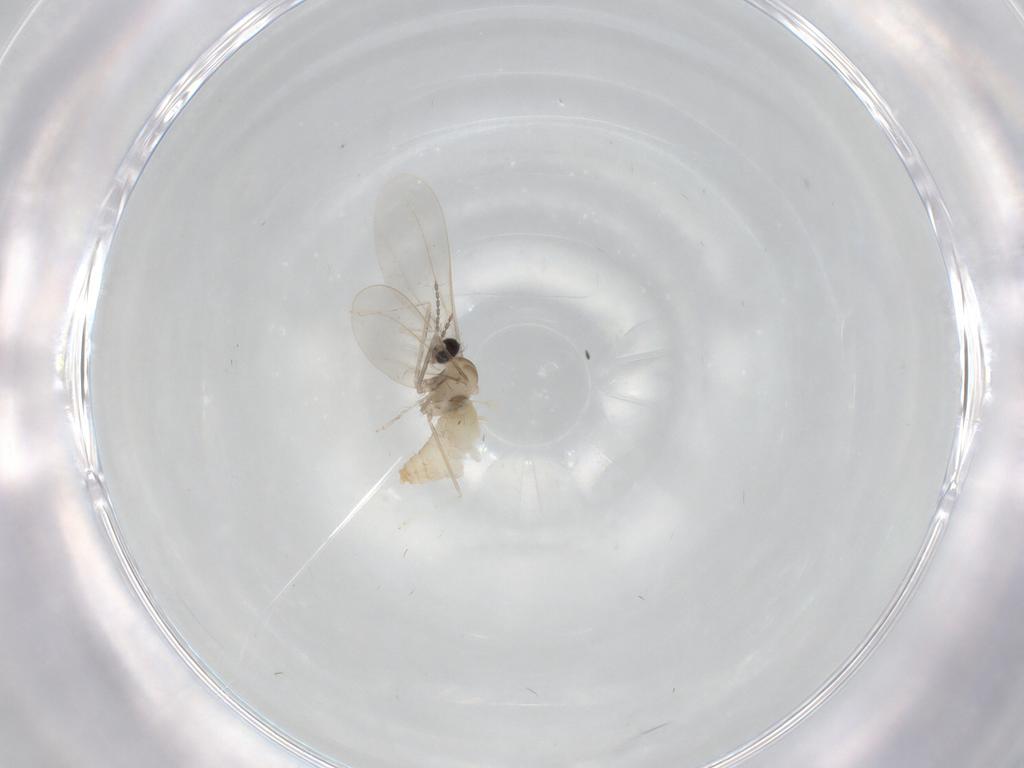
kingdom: Animalia
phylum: Arthropoda
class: Insecta
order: Diptera
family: Cecidomyiidae
